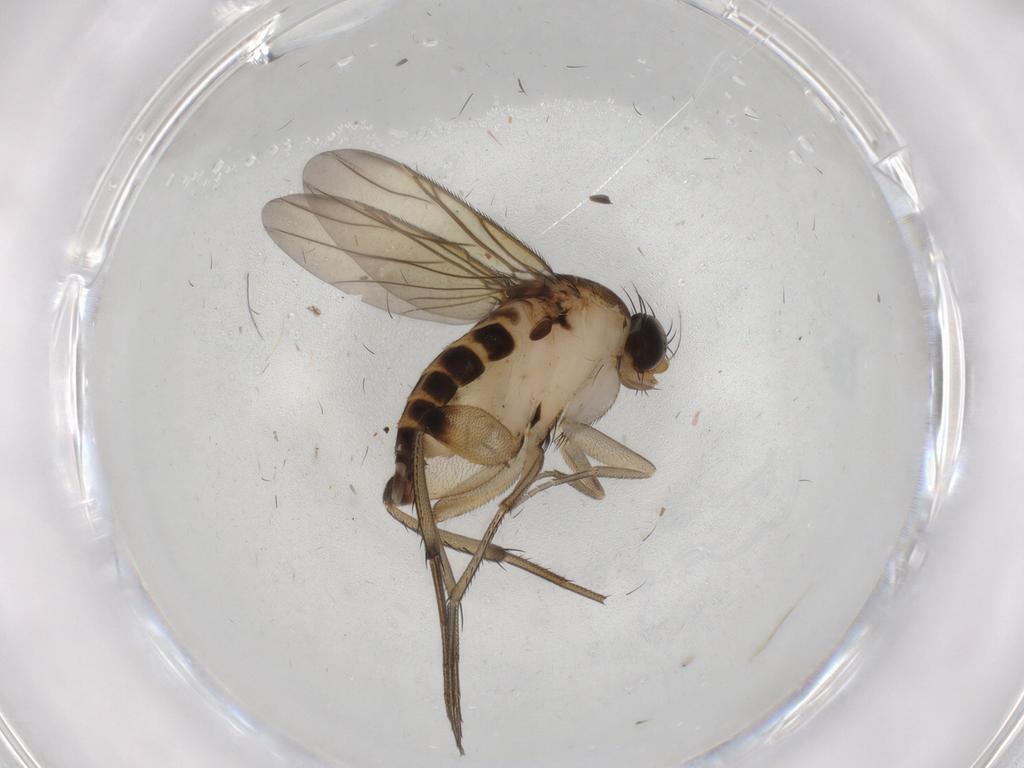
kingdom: Animalia
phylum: Arthropoda
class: Insecta
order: Diptera
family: Phoridae
